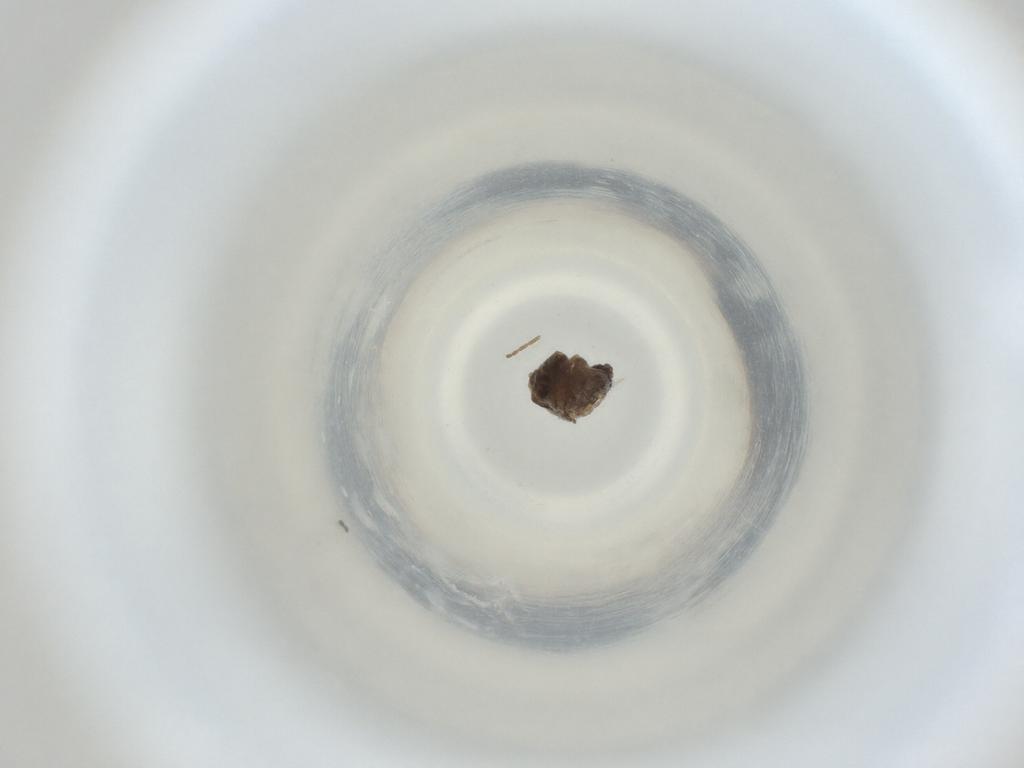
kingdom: Animalia
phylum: Arthropoda
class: Insecta
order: Diptera
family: Cecidomyiidae
